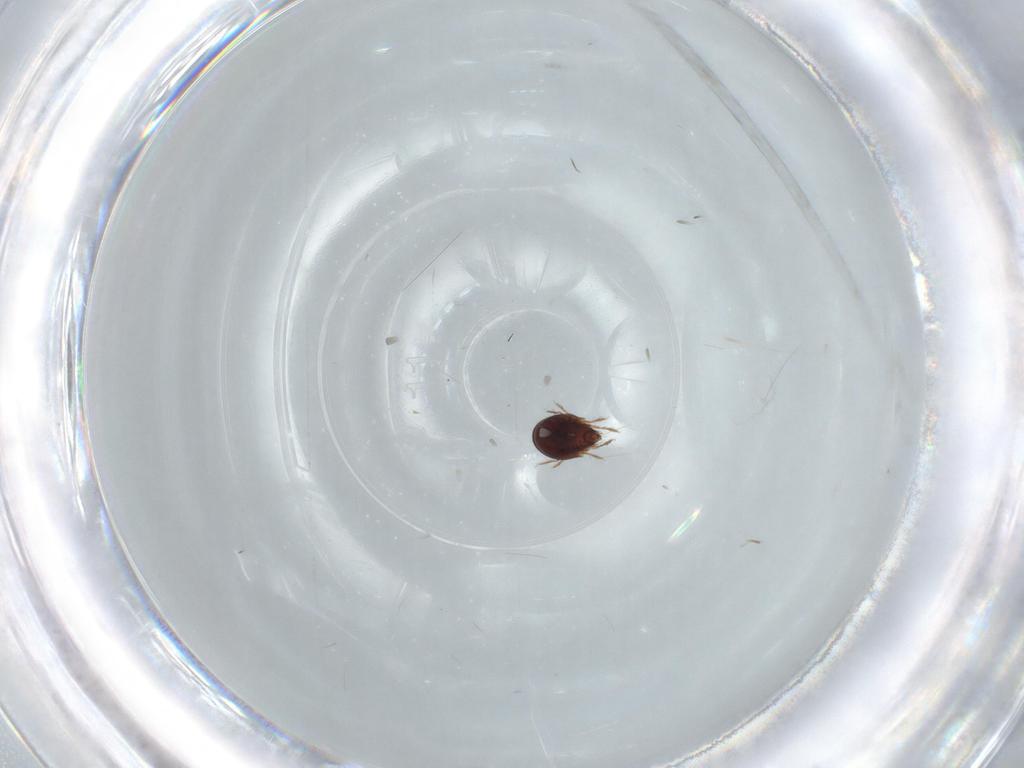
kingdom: Animalia
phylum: Arthropoda
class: Arachnida
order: Sarcoptiformes
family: Ceratozetidae
